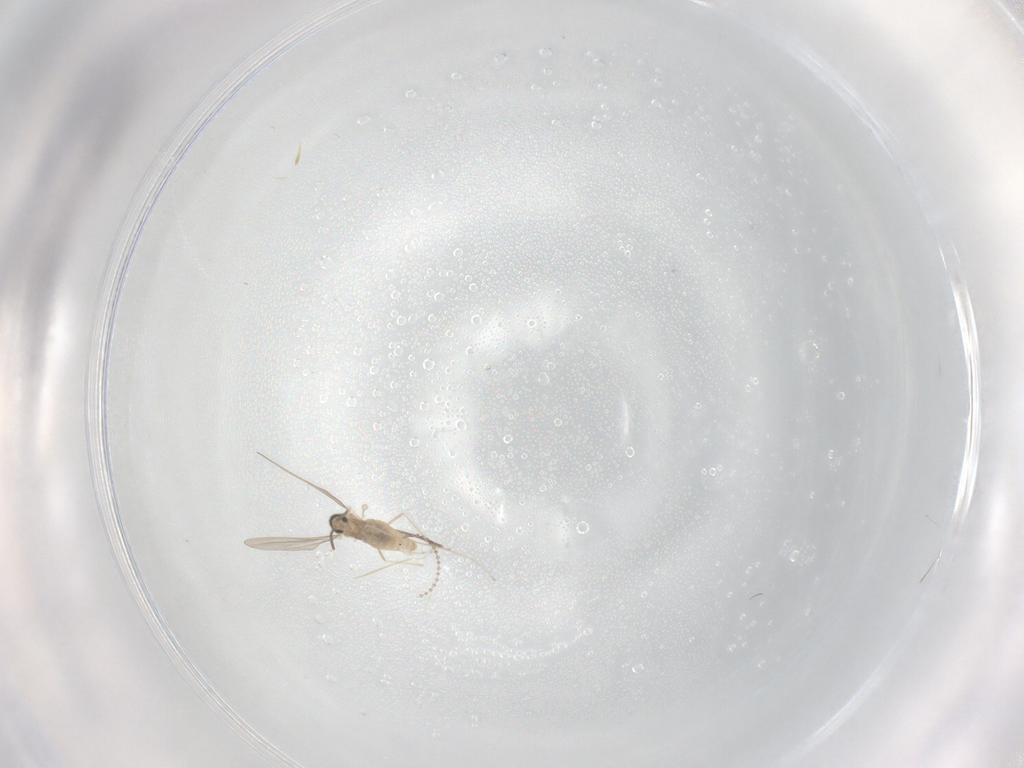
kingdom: Animalia
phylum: Arthropoda
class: Insecta
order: Diptera
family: Cecidomyiidae
